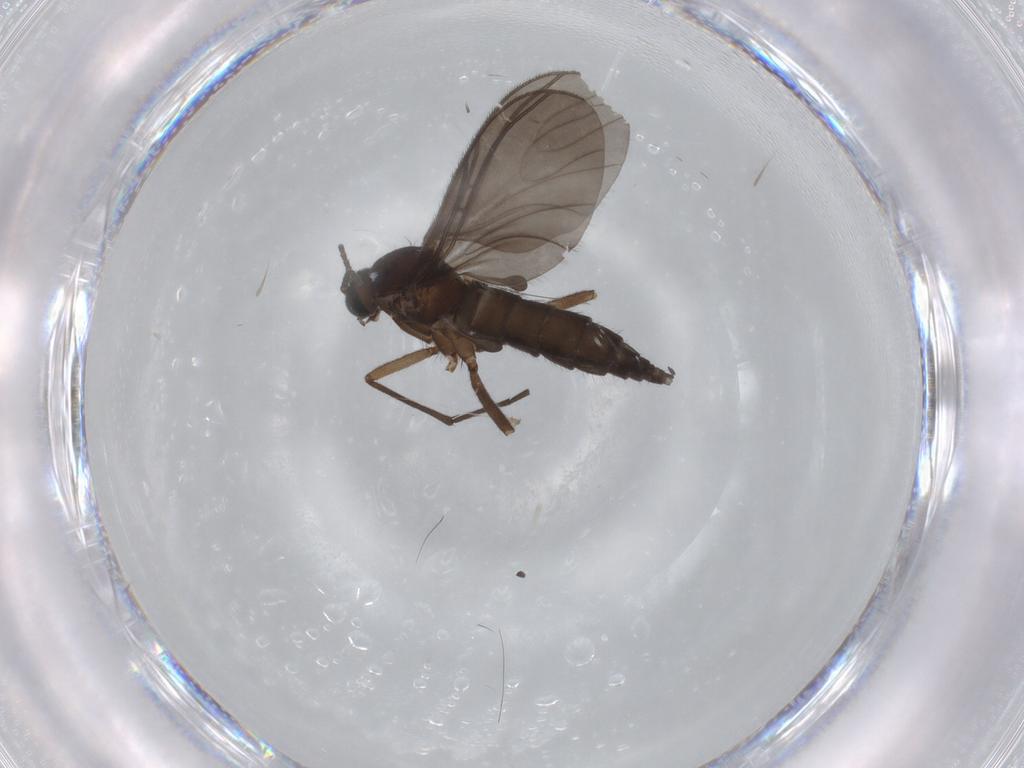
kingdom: Animalia
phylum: Arthropoda
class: Insecta
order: Diptera
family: Sciaridae
